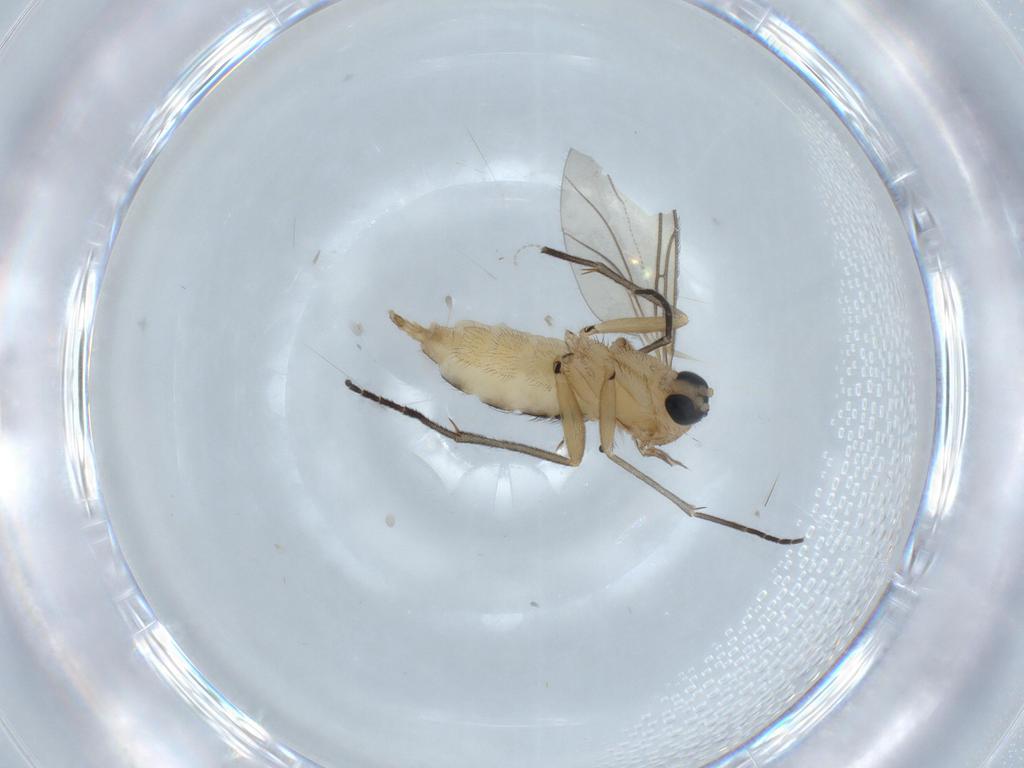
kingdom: Animalia
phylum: Arthropoda
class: Insecta
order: Diptera
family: Sciaridae
